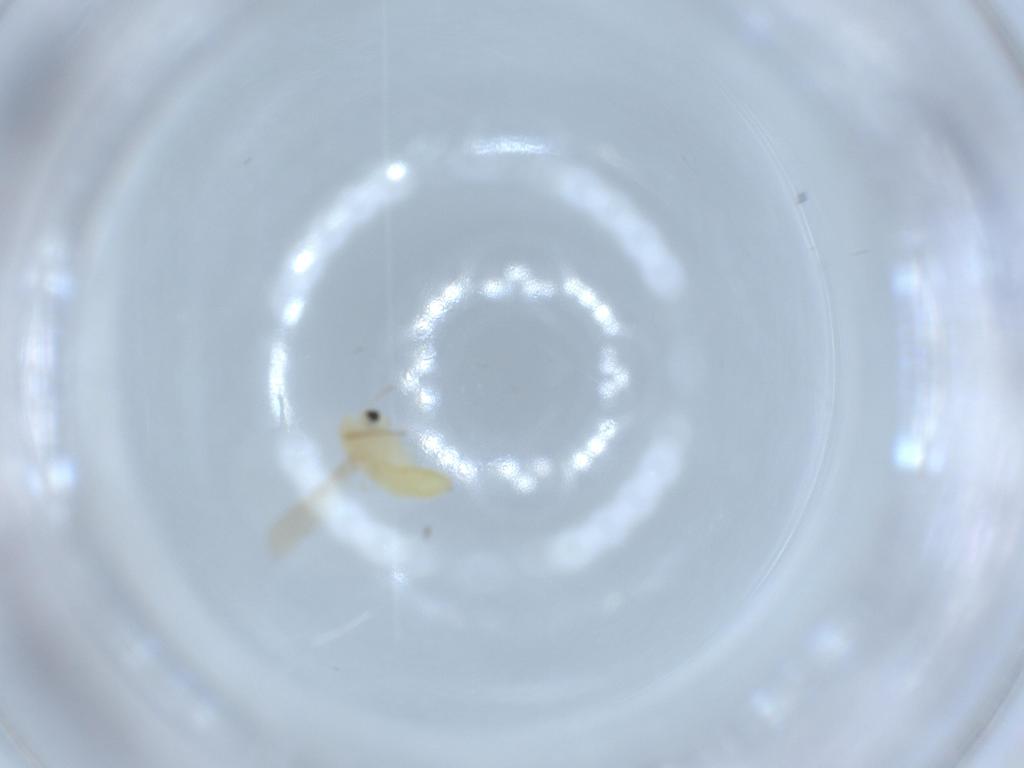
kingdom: Animalia
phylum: Arthropoda
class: Insecta
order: Diptera
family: Chironomidae
